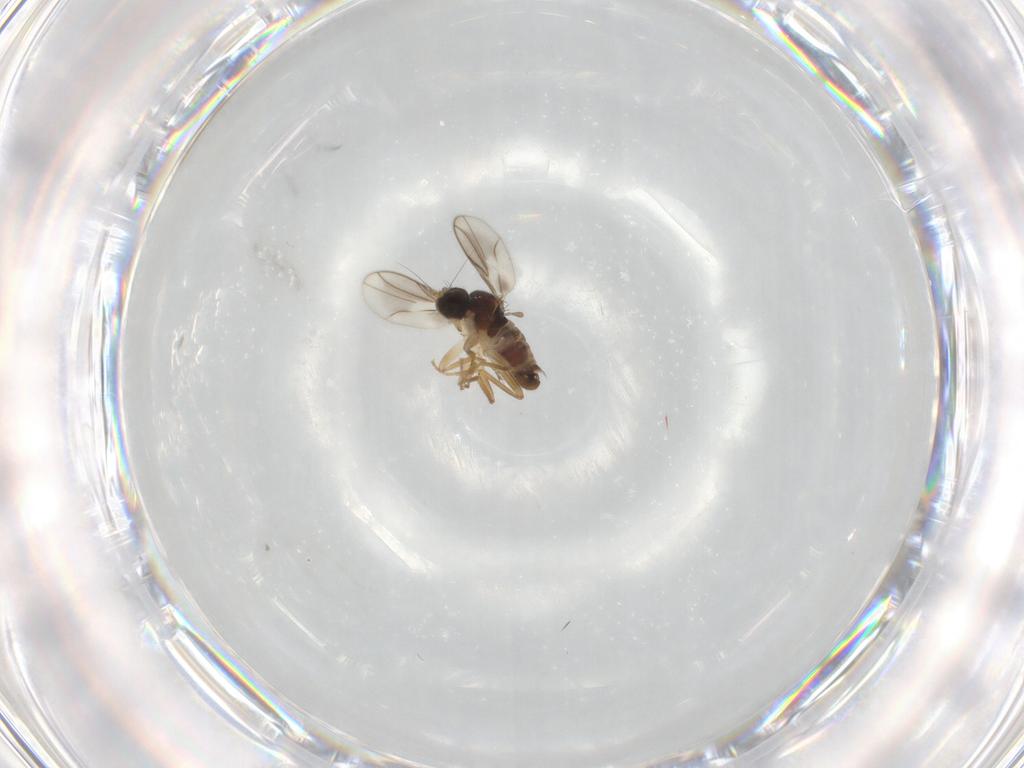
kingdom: Animalia
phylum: Arthropoda
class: Insecta
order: Diptera
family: Hybotidae
